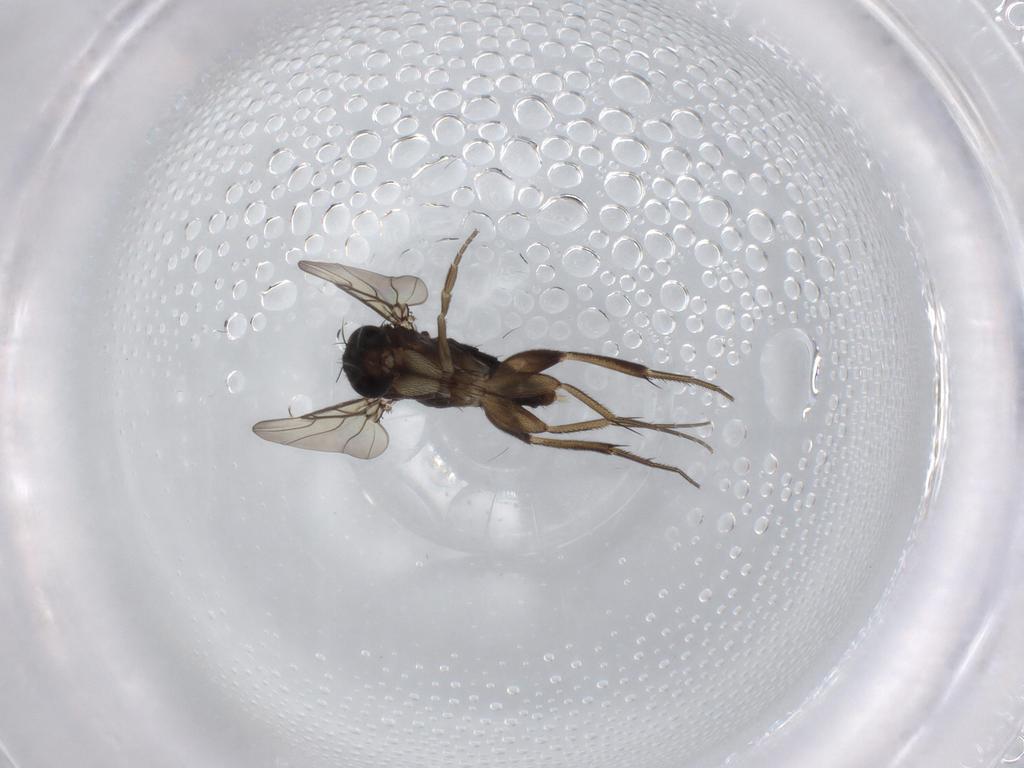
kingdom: Animalia
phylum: Arthropoda
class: Insecta
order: Diptera
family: Phoridae
